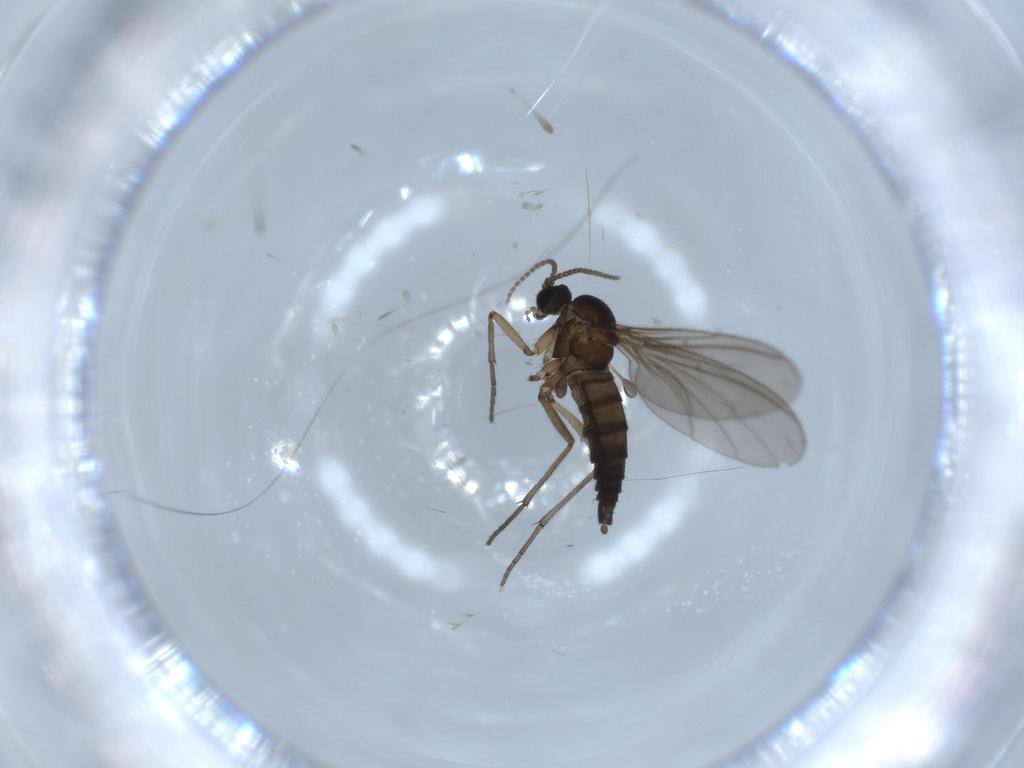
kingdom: Animalia
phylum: Arthropoda
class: Insecta
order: Diptera
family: Sciaridae
